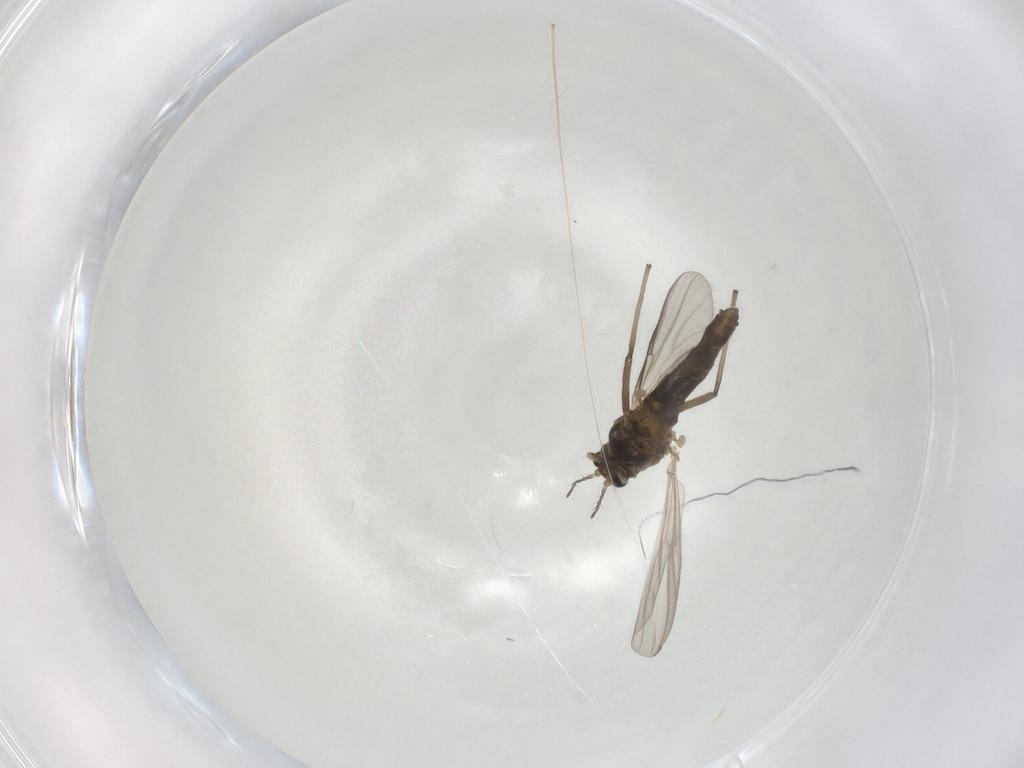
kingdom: Animalia
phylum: Arthropoda
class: Insecta
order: Diptera
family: Chironomidae
